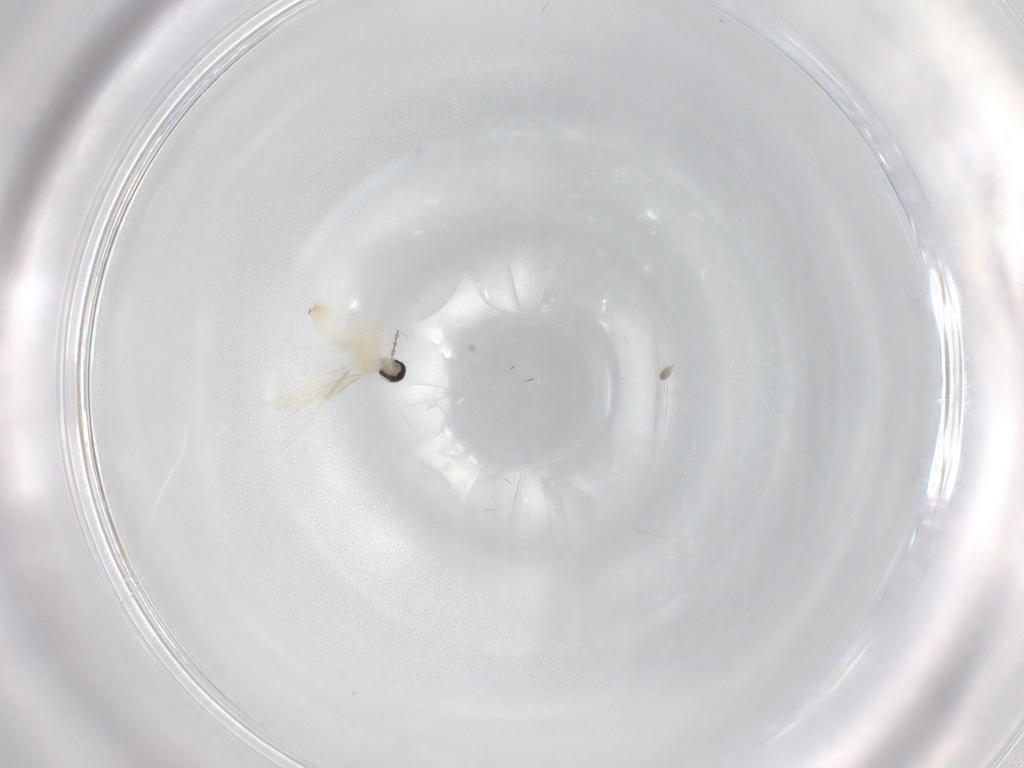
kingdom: Animalia
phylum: Arthropoda
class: Insecta
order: Diptera
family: Cecidomyiidae
